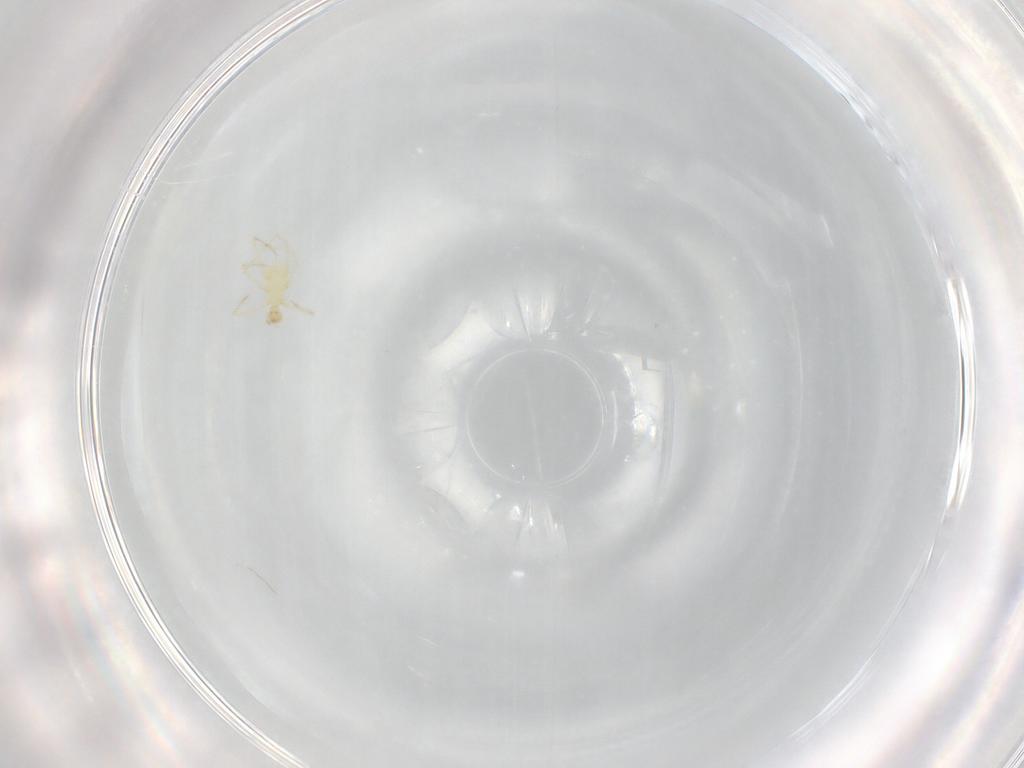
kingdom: Animalia
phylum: Arthropoda
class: Arachnida
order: Trombidiformes
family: Erythraeidae
